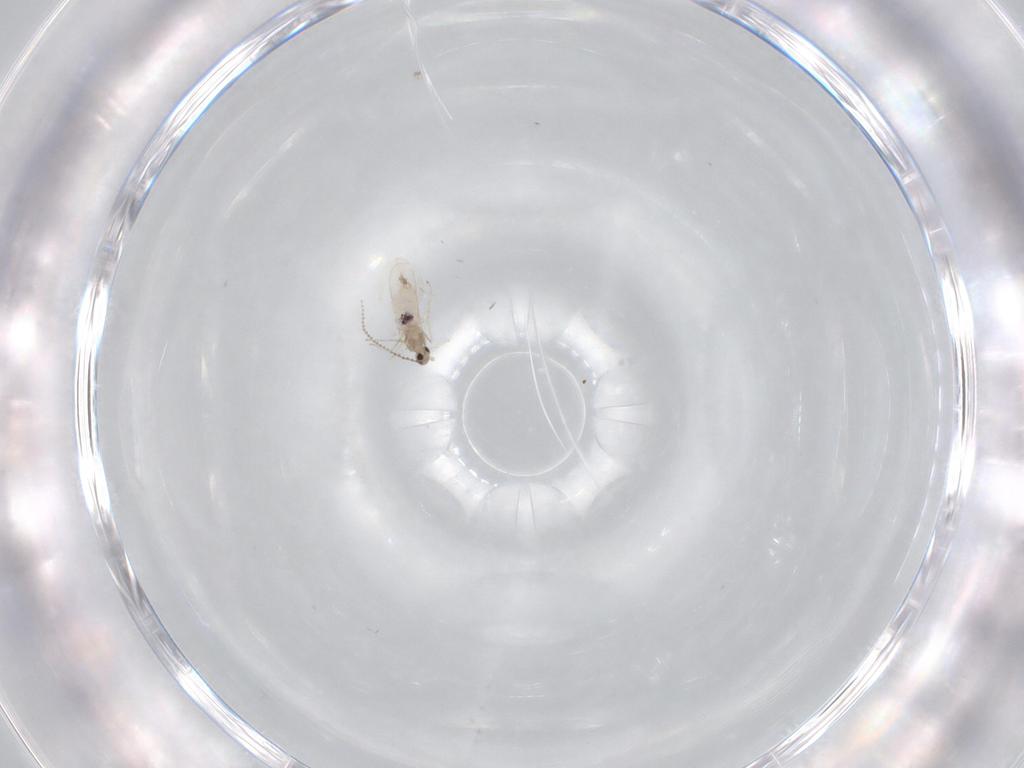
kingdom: Animalia
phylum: Arthropoda
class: Insecta
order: Diptera
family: Cecidomyiidae
